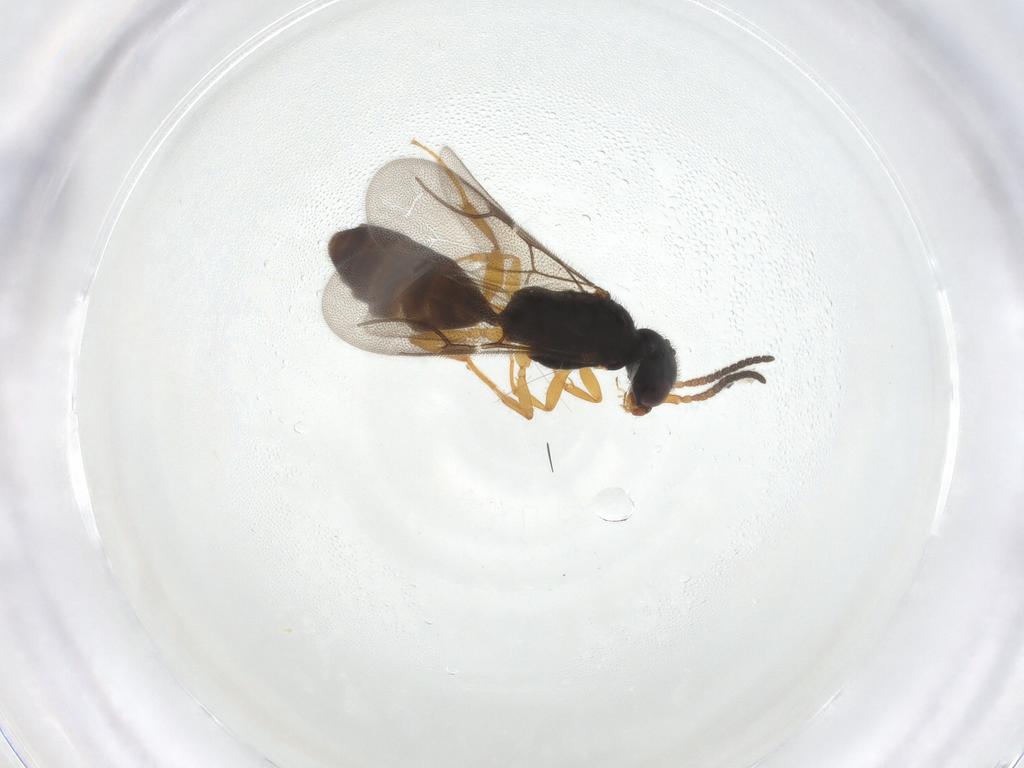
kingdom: Animalia
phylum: Arthropoda
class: Insecta
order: Hymenoptera
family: Bethylidae
